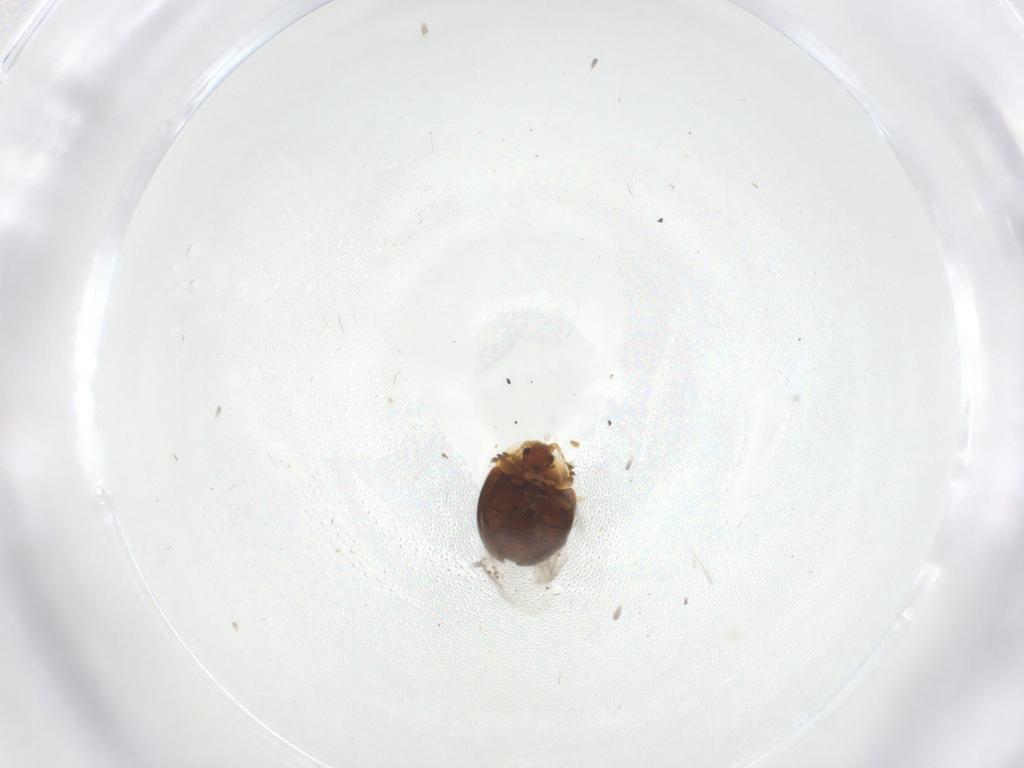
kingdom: Animalia
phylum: Arthropoda
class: Insecta
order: Coleoptera
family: Corylophidae
